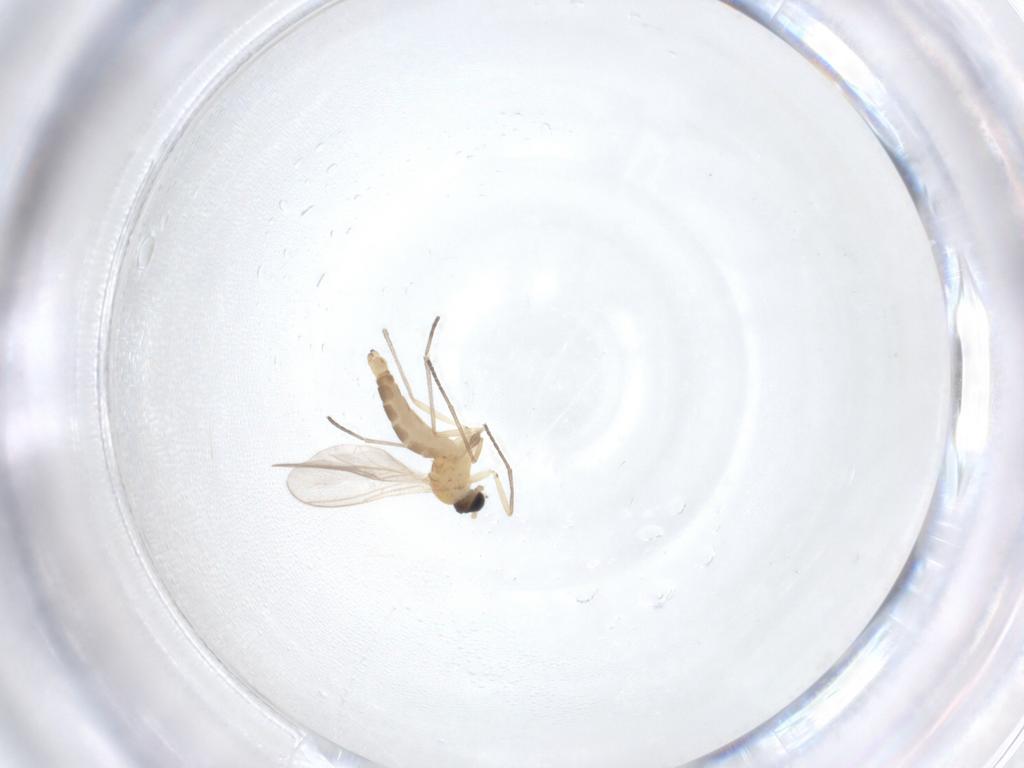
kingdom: Animalia
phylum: Arthropoda
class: Insecta
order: Diptera
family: Sciaridae
